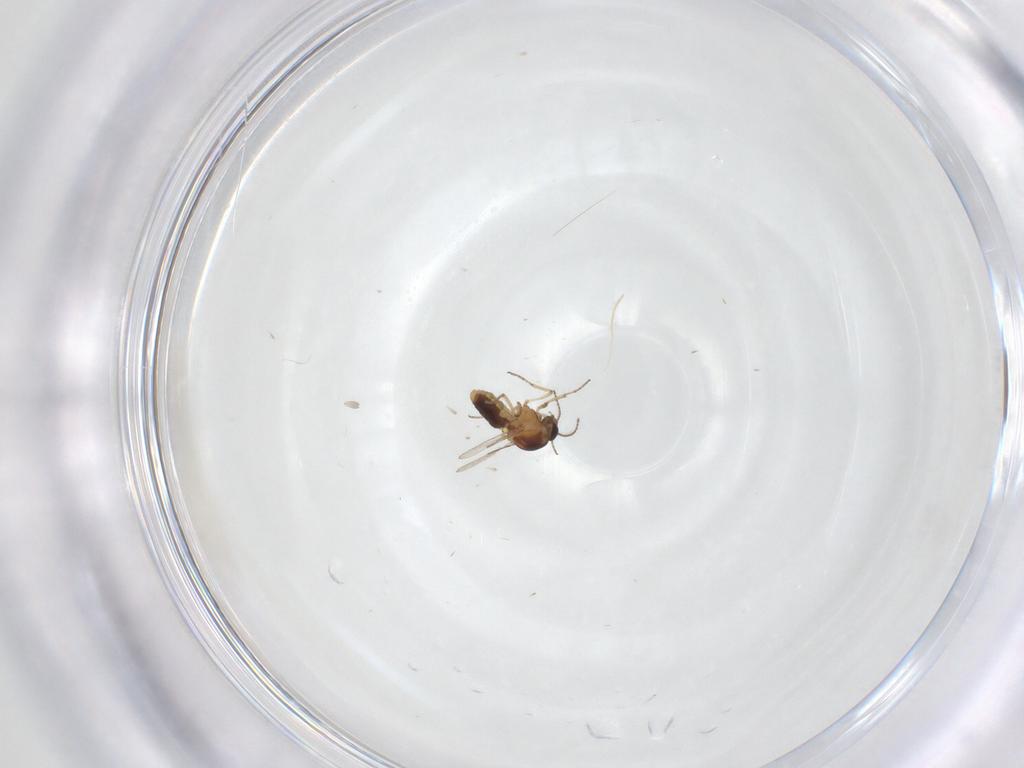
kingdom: Animalia
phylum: Arthropoda
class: Insecta
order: Diptera
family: Ceratopogonidae
